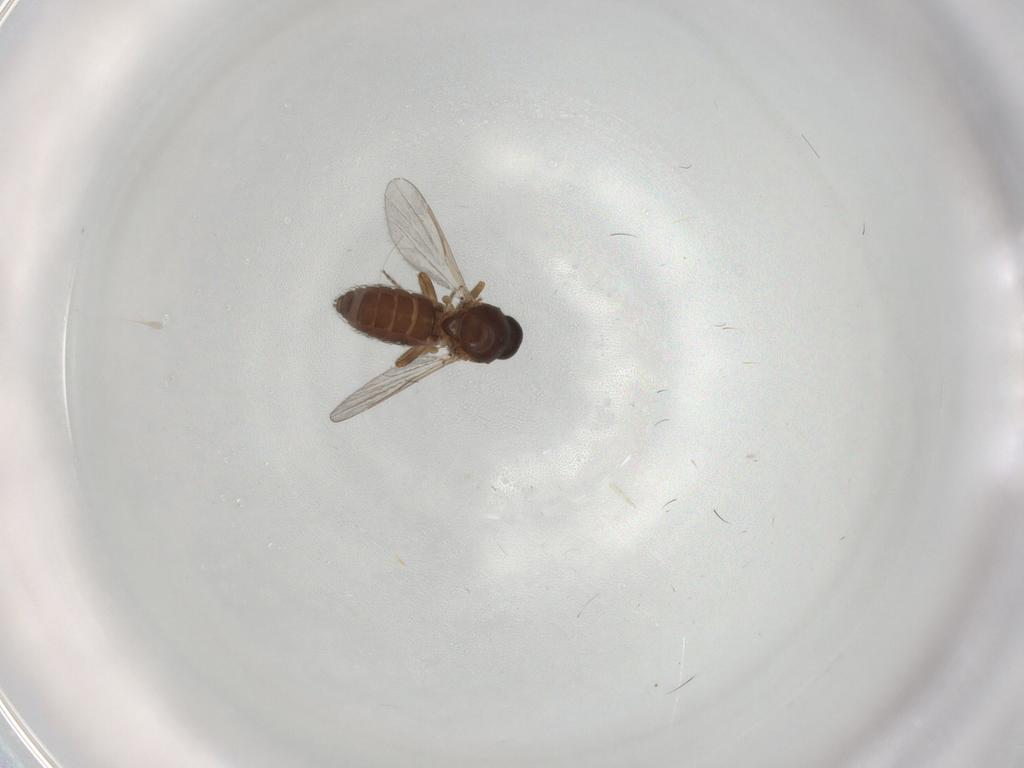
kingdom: Animalia
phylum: Arthropoda
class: Insecta
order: Diptera
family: Ceratopogonidae
